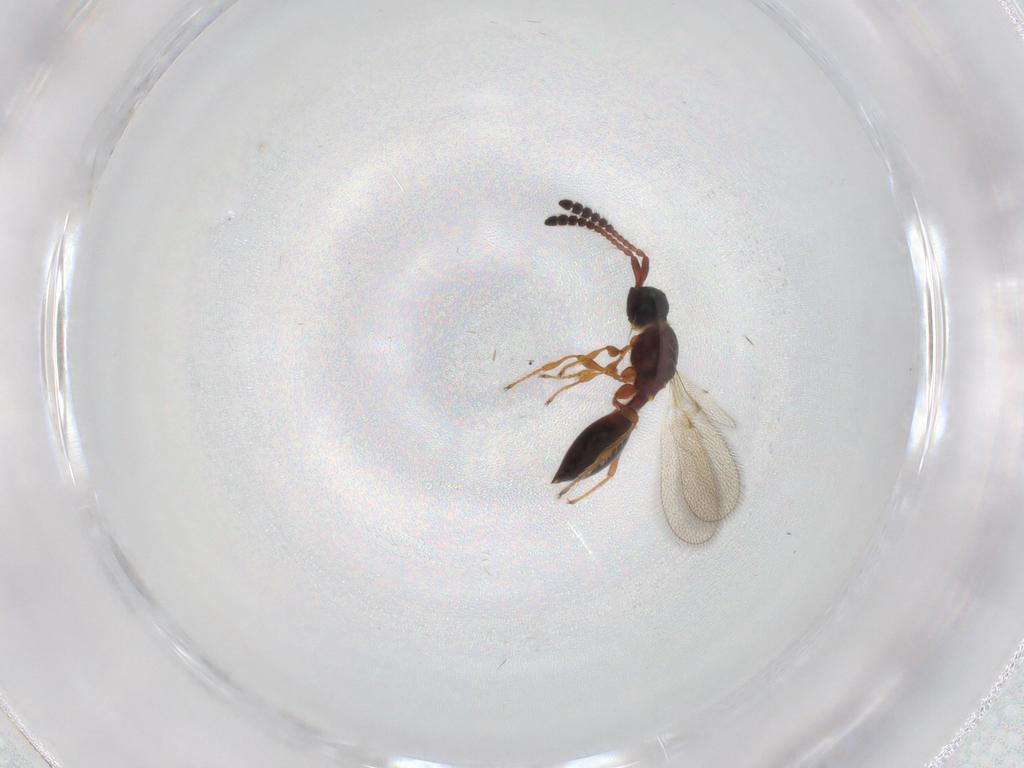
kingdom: Animalia
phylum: Arthropoda
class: Insecta
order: Hymenoptera
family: Diapriidae
